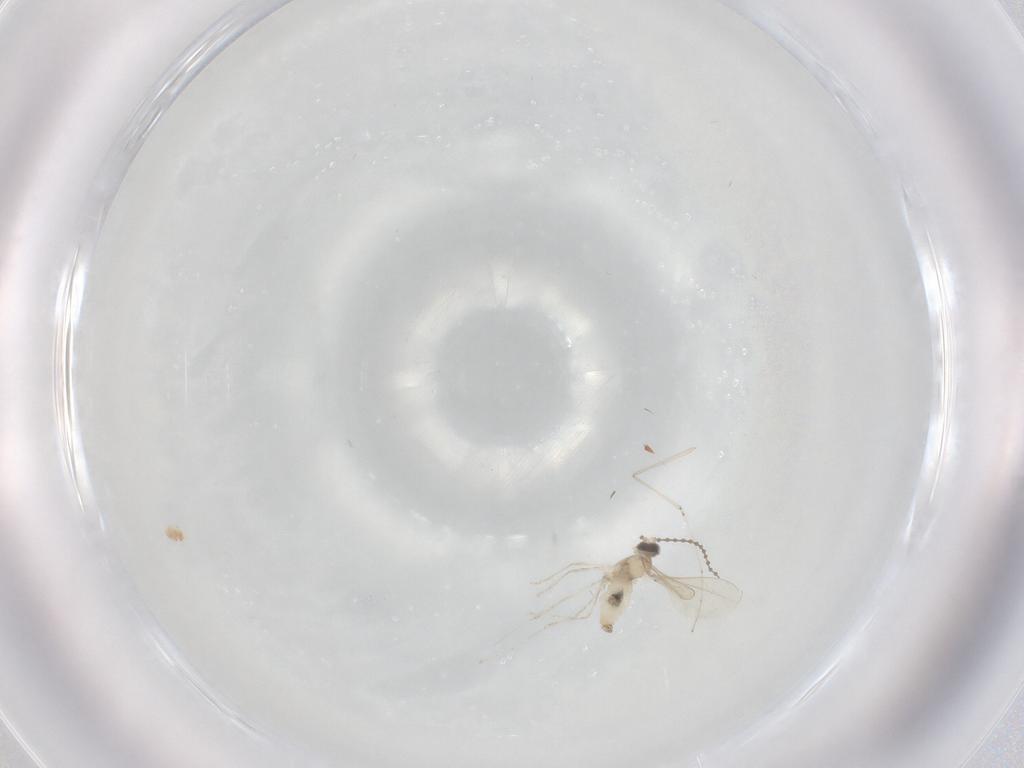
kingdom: Animalia
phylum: Arthropoda
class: Insecta
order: Diptera
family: Cecidomyiidae
